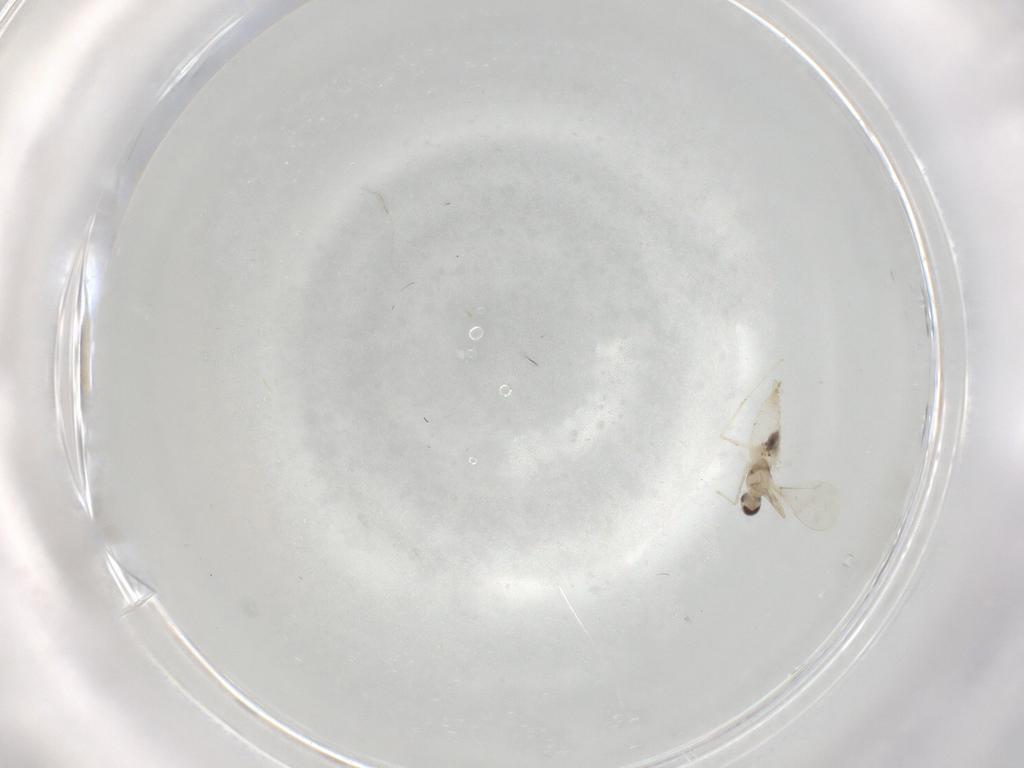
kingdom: Animalia
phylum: Arthropoda
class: Insecta
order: Diptera
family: Cecidomyiidae
